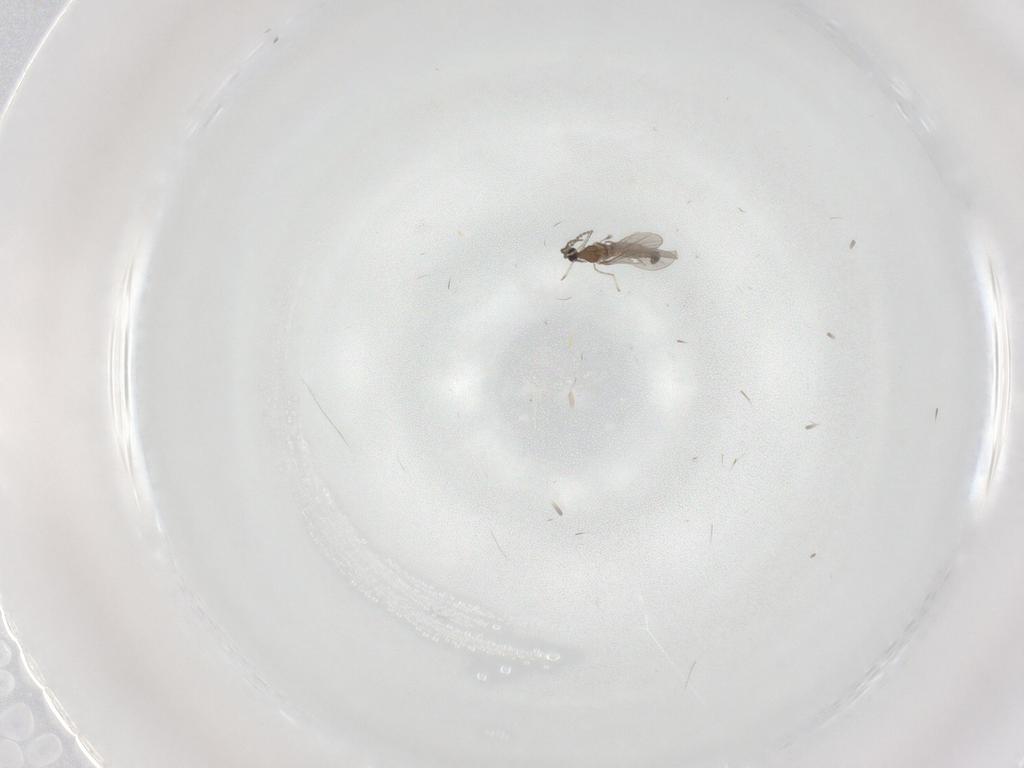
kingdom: Animalia
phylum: Arthropoda
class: Insecta
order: Diptera
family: Cecidomyiidae
